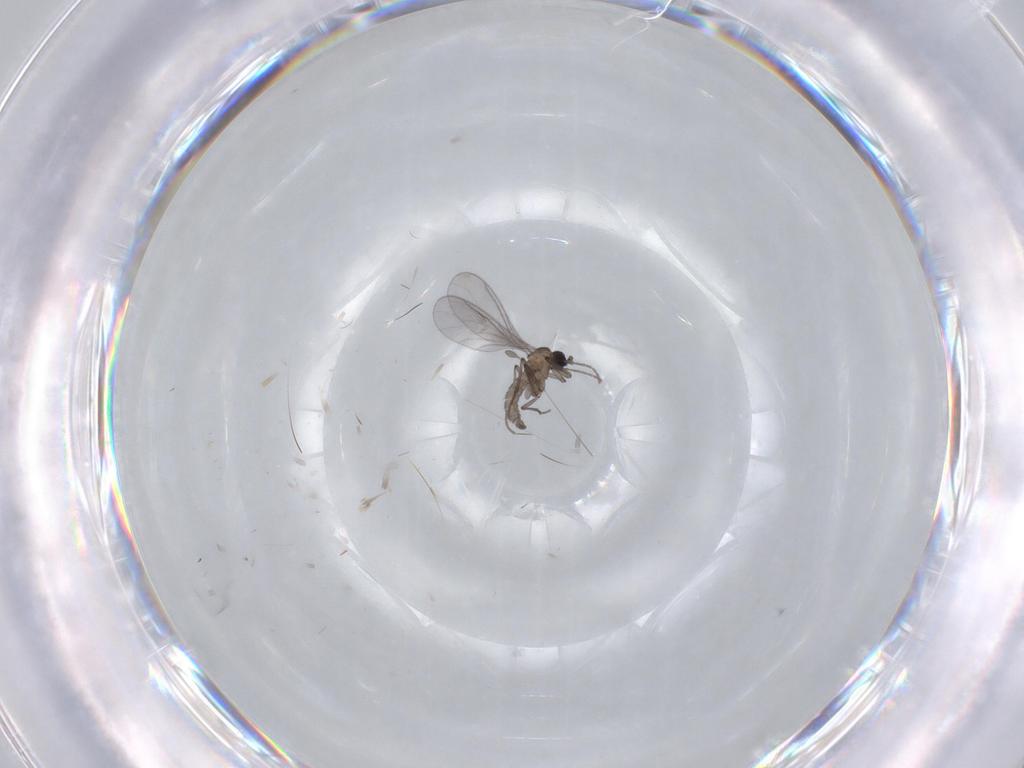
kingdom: Animalia
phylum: Arthropoda
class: Insecta
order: Diptera
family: Sciaridae
